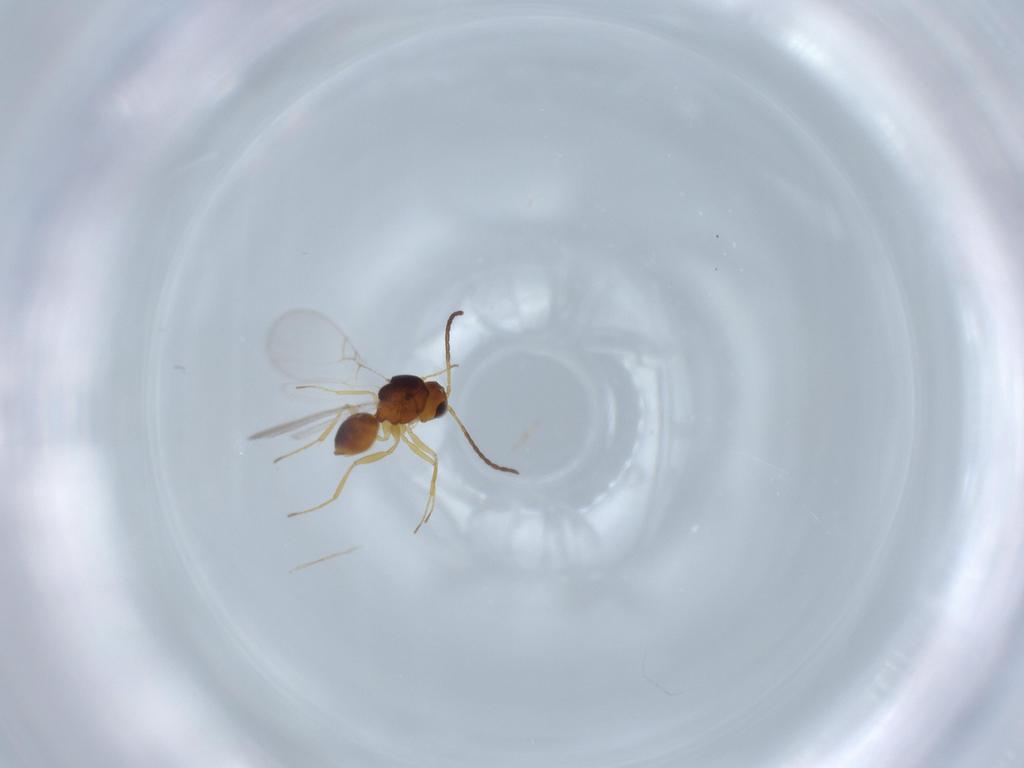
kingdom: Animalia
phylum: Arthropoda
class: Insecta
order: Hymenoptera
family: Figitidae
